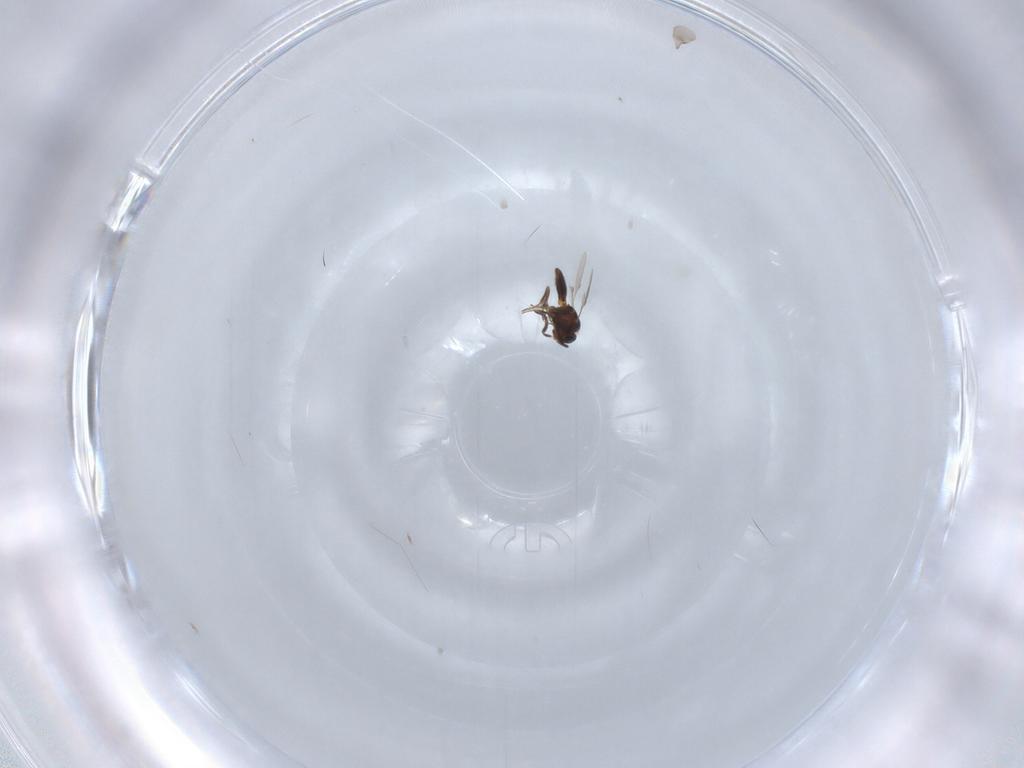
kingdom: Animalia
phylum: Arthropoda
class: Insecta
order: Hymenoptera
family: Scelionidae
